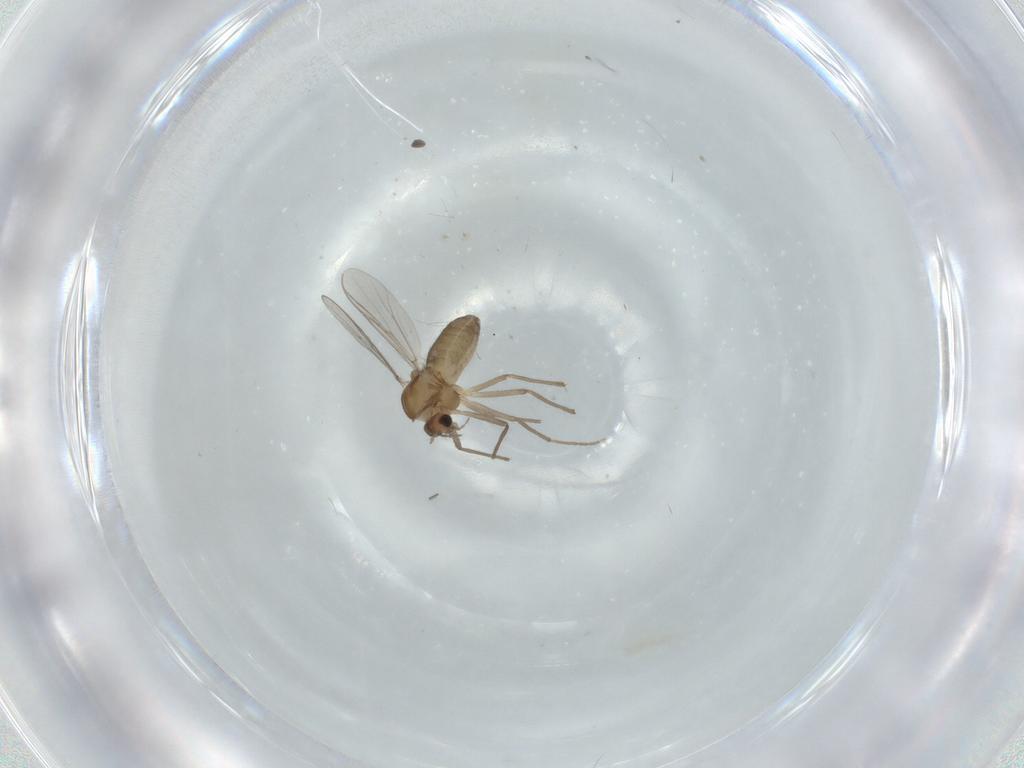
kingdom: Animalia
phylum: Arthropoda
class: Insecta
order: Diptera
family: Chironomidae
